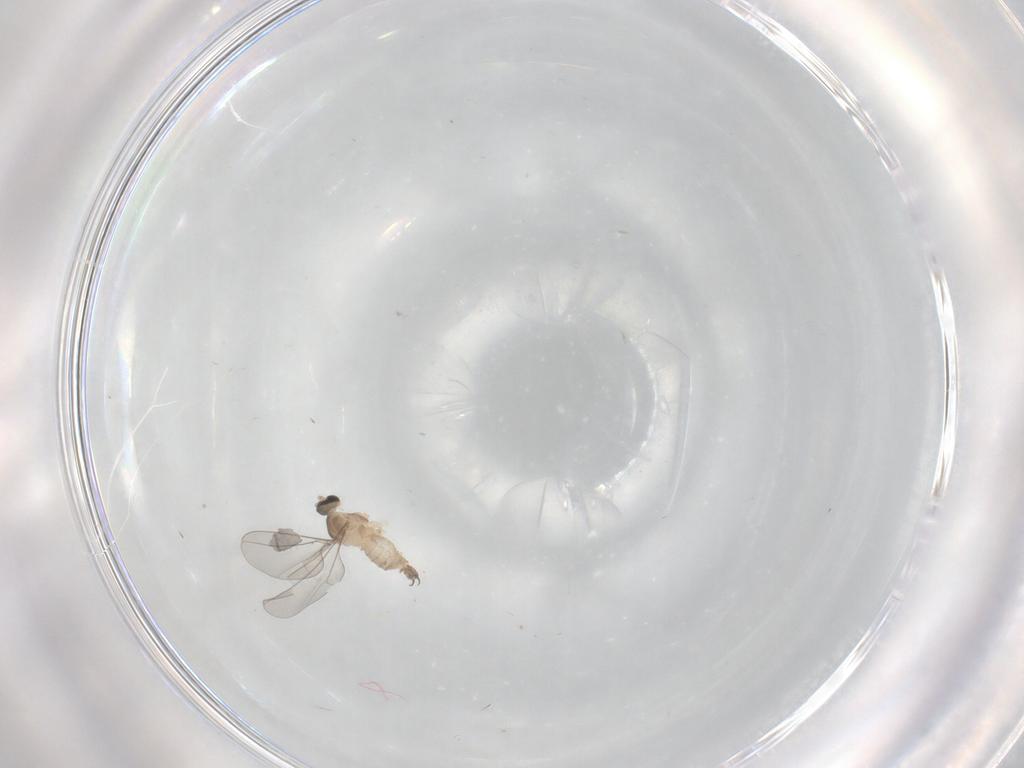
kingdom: Animalia
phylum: Arthropoda
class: Insecta
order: Diptera
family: Cecidomyiidae
